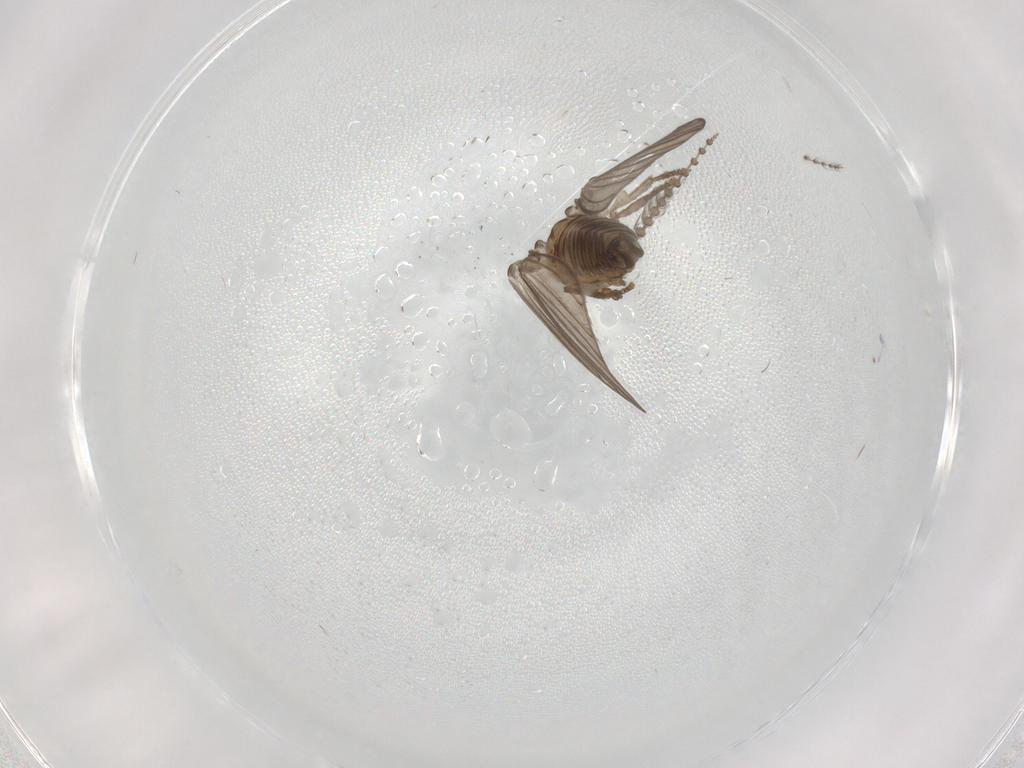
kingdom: Animalia
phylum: Arthropoda
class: Insecta
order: Diptera
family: Psychodidae
